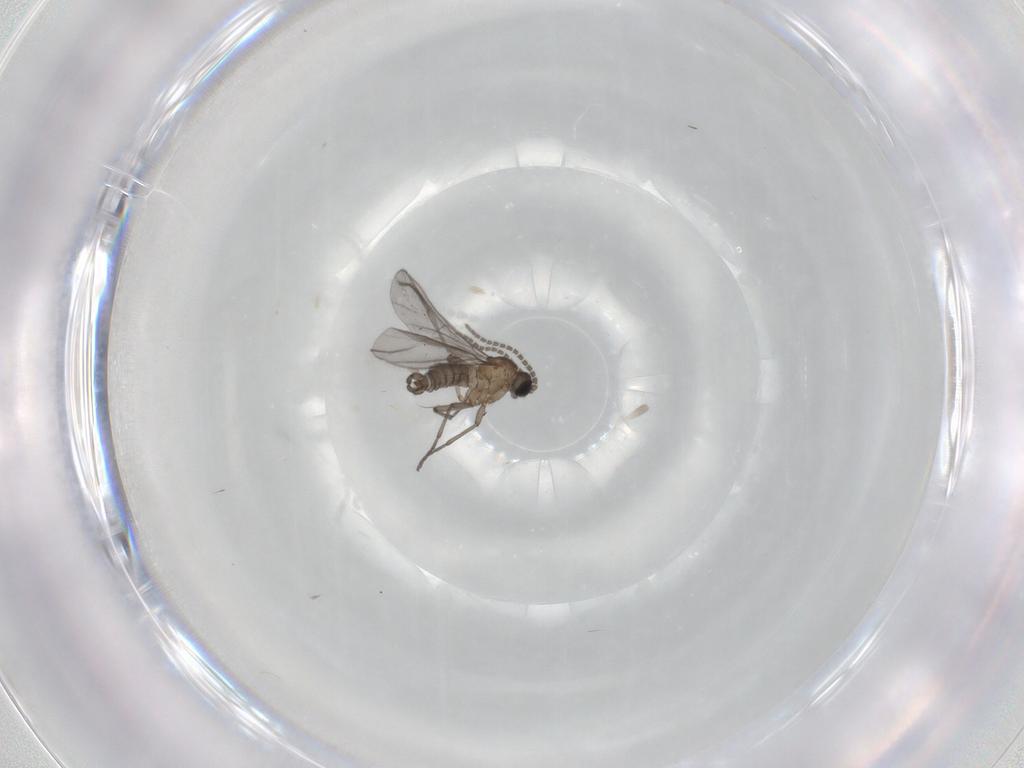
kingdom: Animalia
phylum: Arthropoda
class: Insecta
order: Diptera
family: Sciaridae
